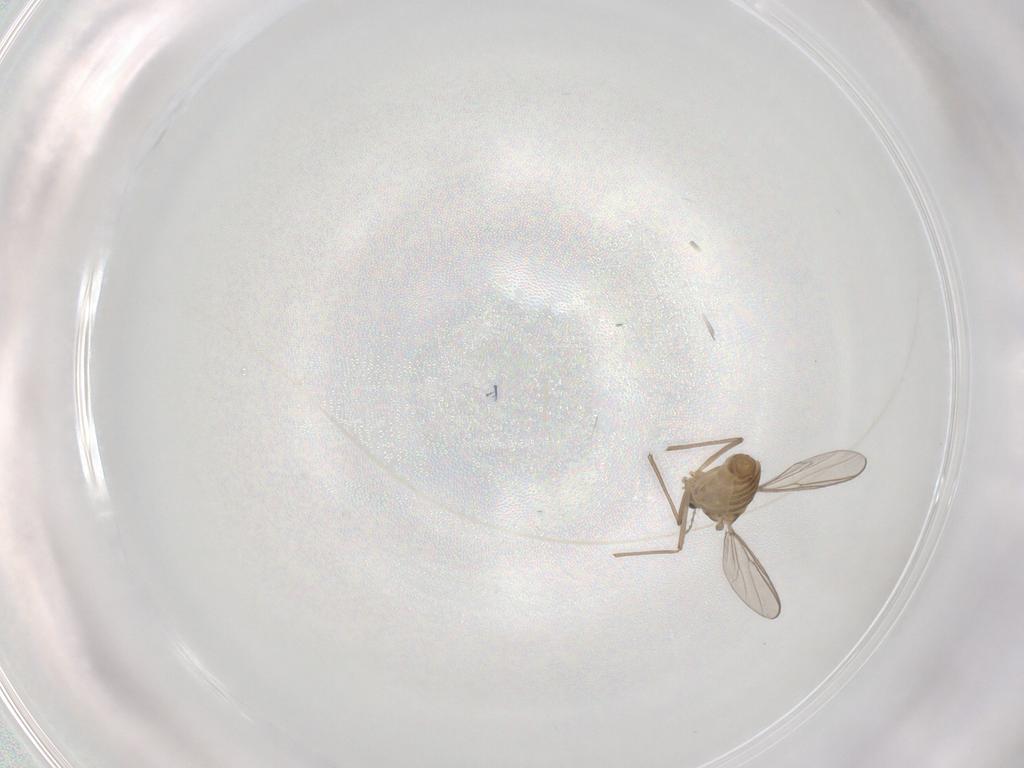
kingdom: Animalia
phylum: Arthropoda
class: Insecta
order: Diptera
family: Chironomidae
